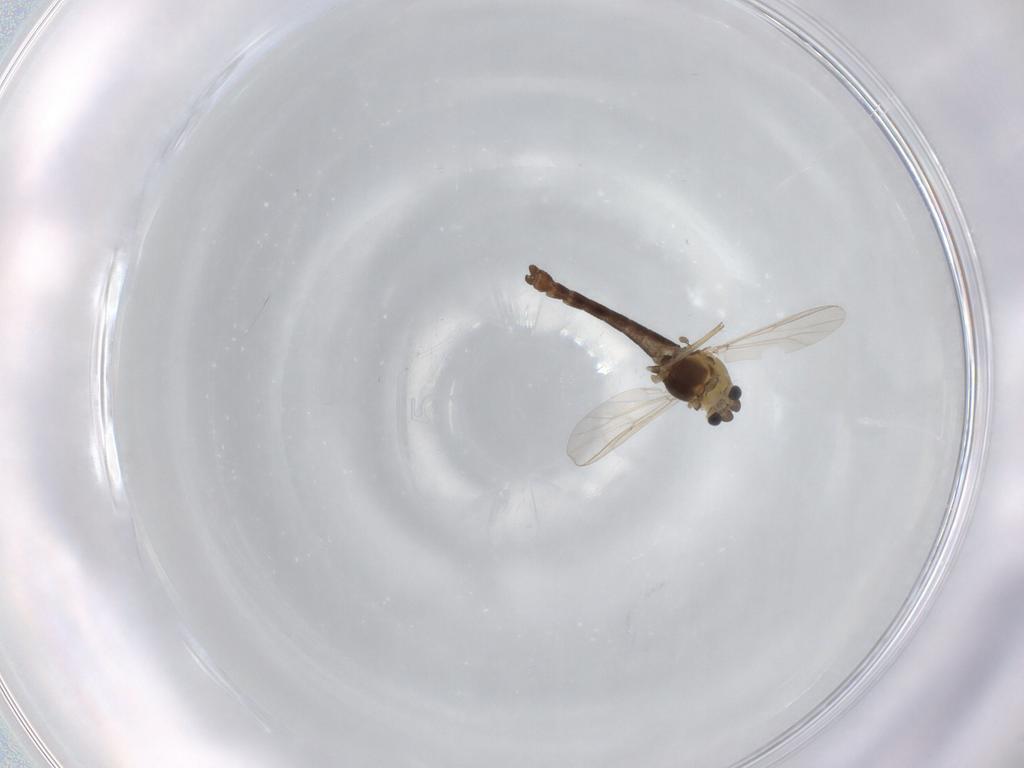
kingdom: Animalia
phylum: Arthropoda
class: Insecta
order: Diptera
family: Chironomidae
